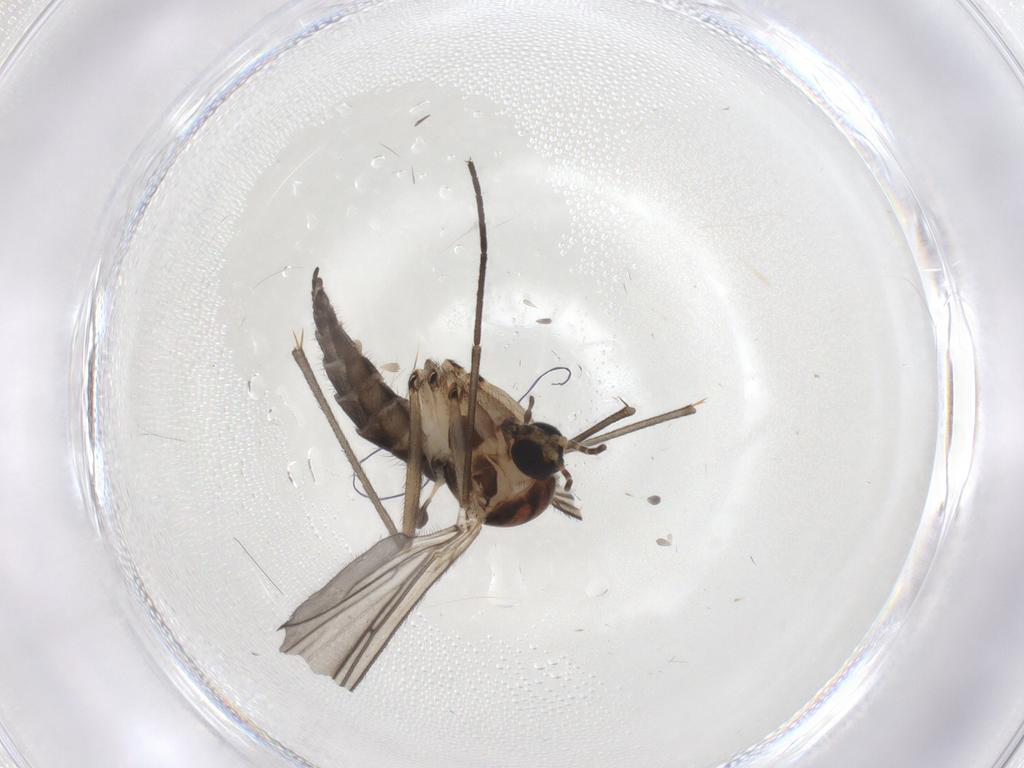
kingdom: Animalia
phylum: Arthropoda
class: Insecta
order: Diptera
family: Sciaridae
